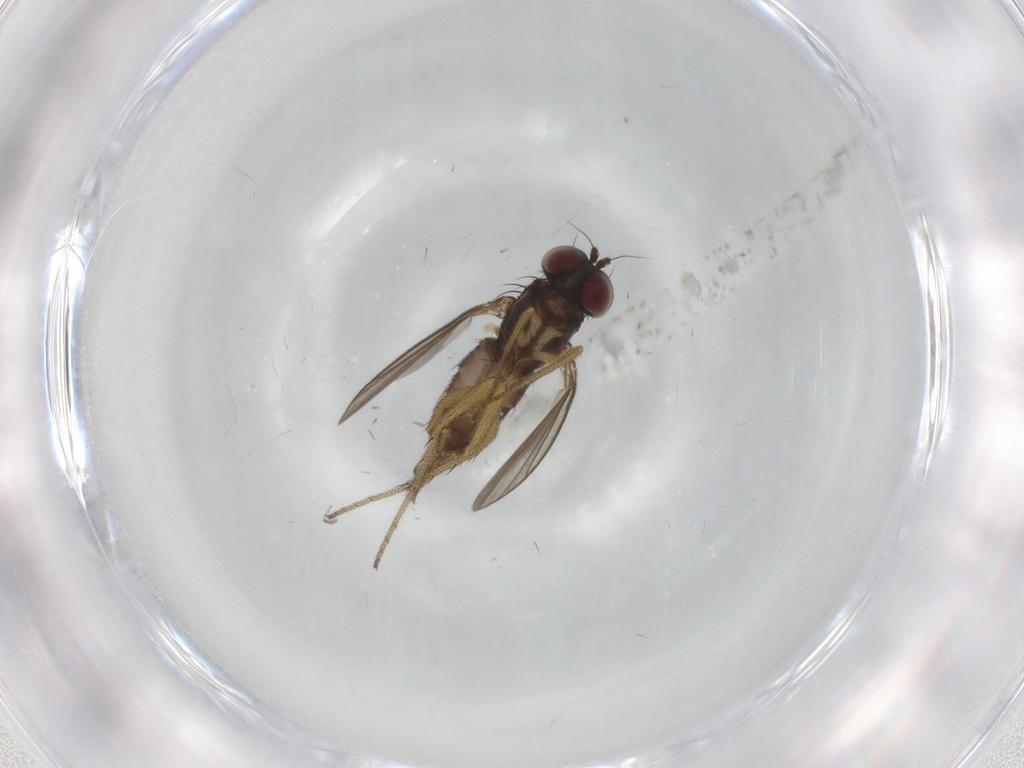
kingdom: Animalia
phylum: Arthropoda
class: Insecta
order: Diptera
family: Dolichopodidae
